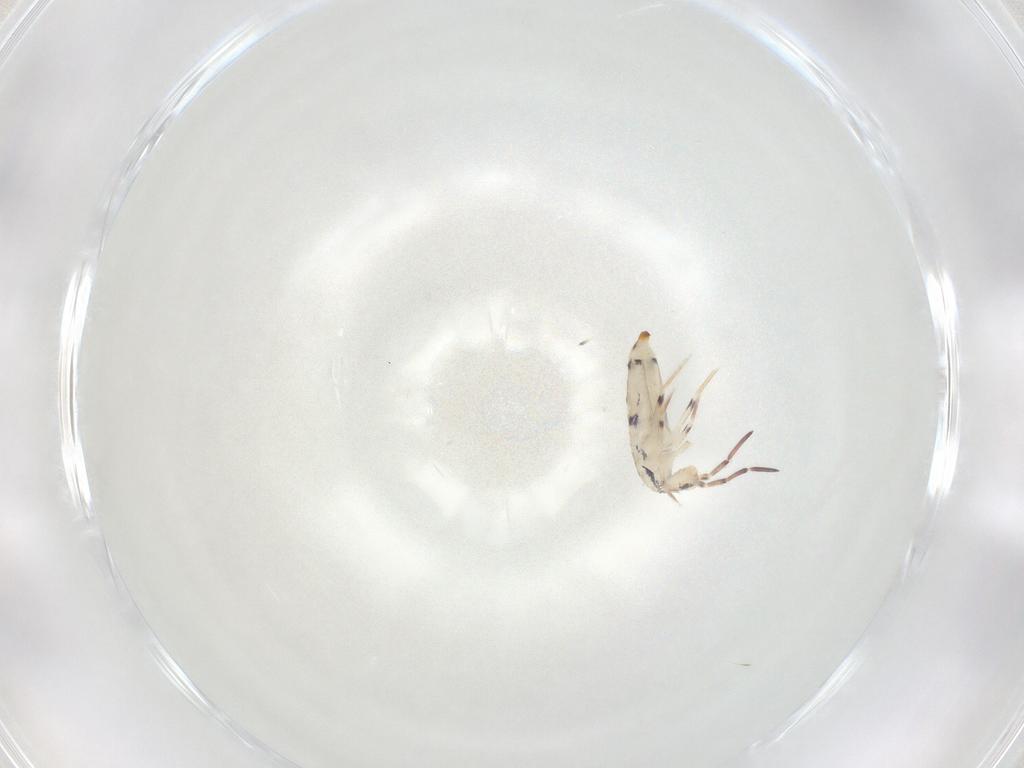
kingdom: Animalia
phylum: Arthropoda
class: Collembola
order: Entomobryomorpha
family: Entomobryidae
